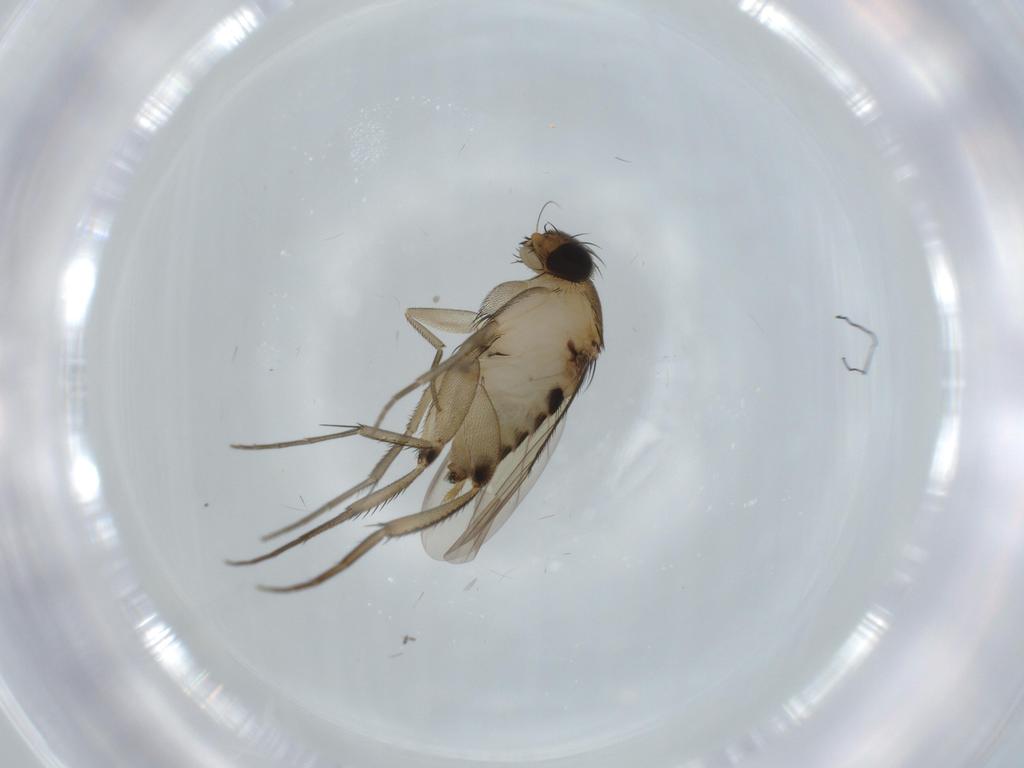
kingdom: Animalia
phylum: Arthropoda
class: Insecta
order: Diptera
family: Phoridae
